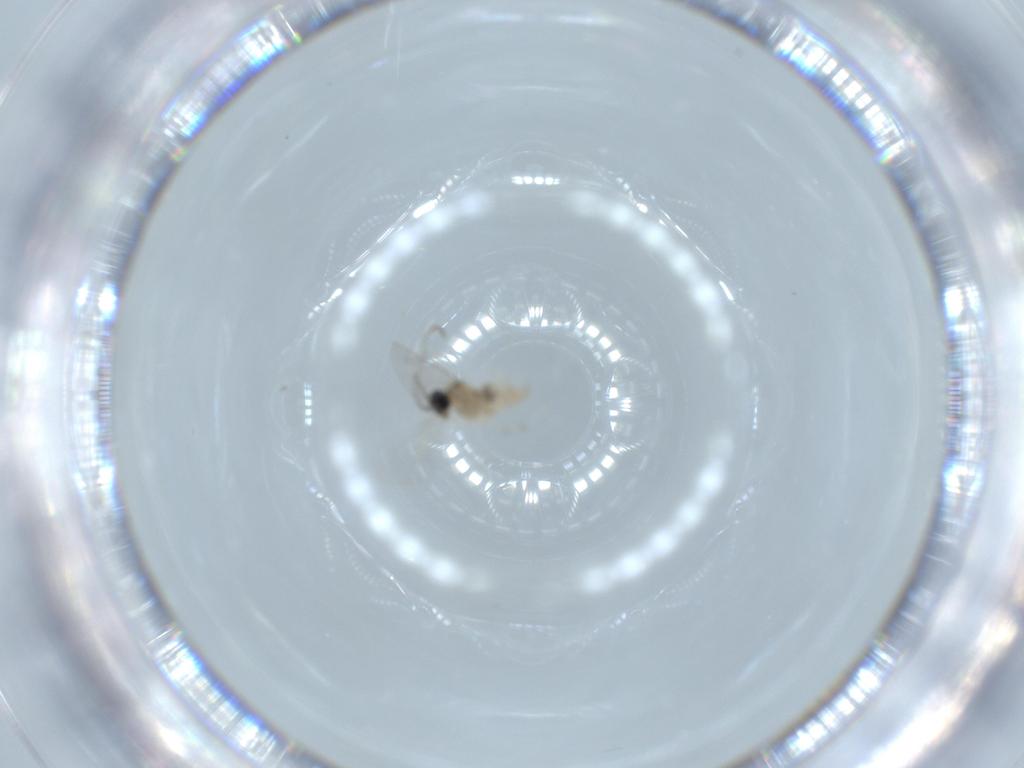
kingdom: Animalia
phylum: Arthropoda
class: Insecta
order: Diptera
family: Cecidomyiidae
